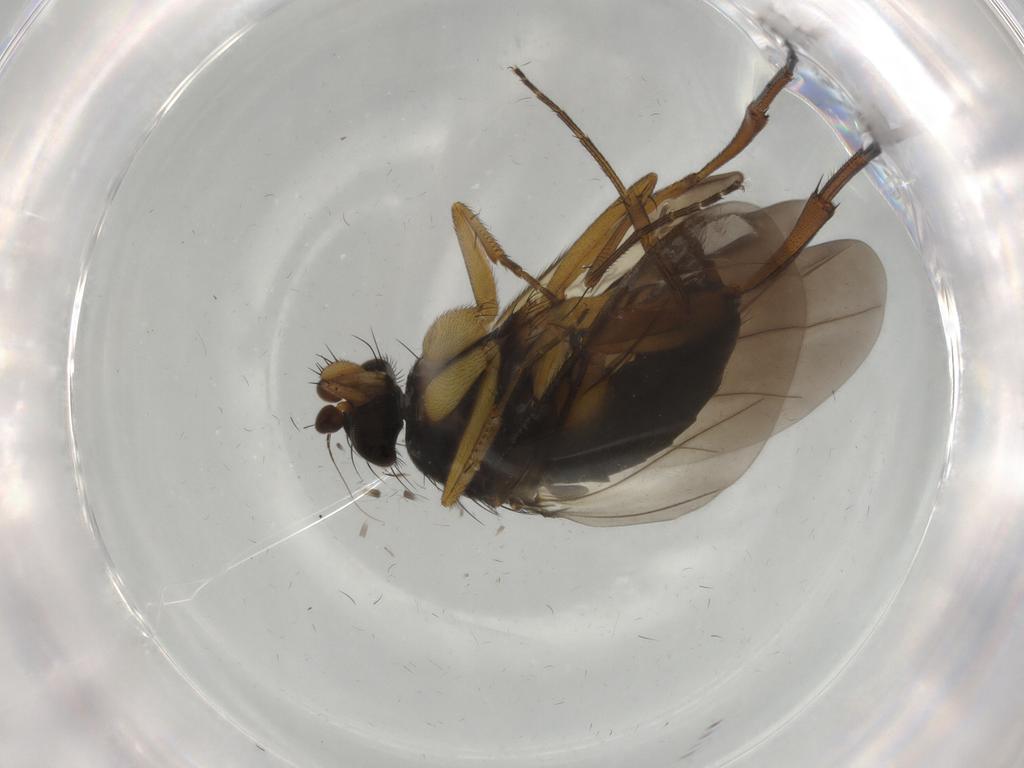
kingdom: Animalia
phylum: Arthropoda
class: Insecta
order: Diptera
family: Phoridae
